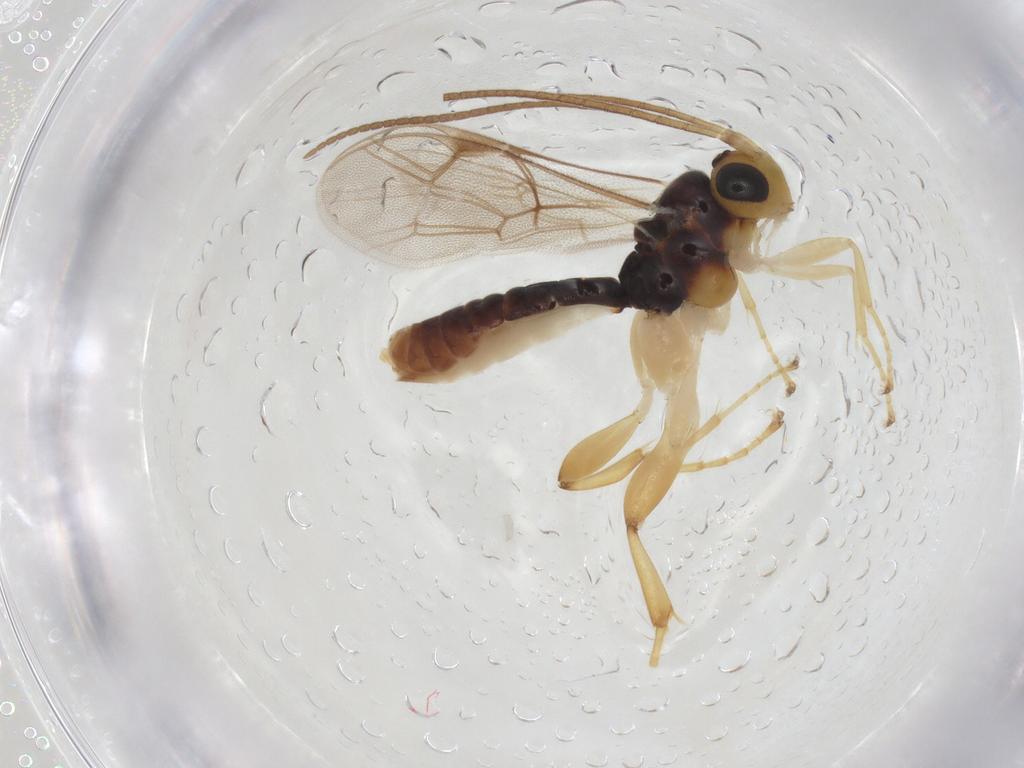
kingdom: Animalia
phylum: Arthropoda
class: Insecta
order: Hymenoptera
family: Ichneumonidae
